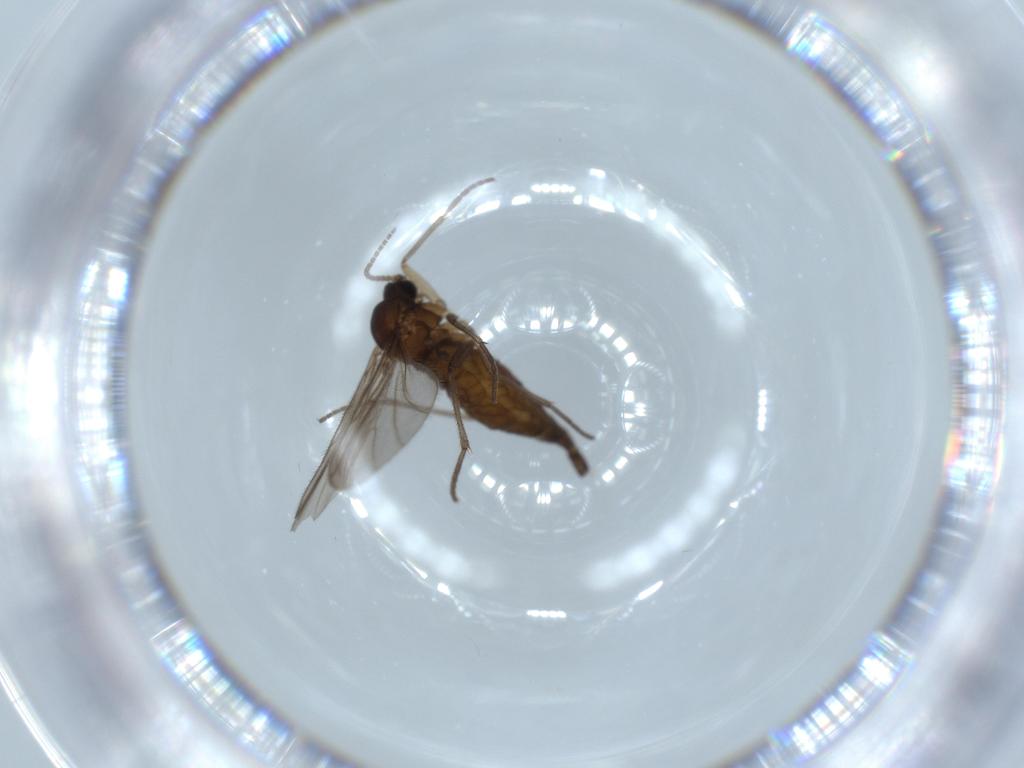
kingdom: Animalia
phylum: Arthropoda
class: Insecta
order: Diptera
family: Sciaridae
